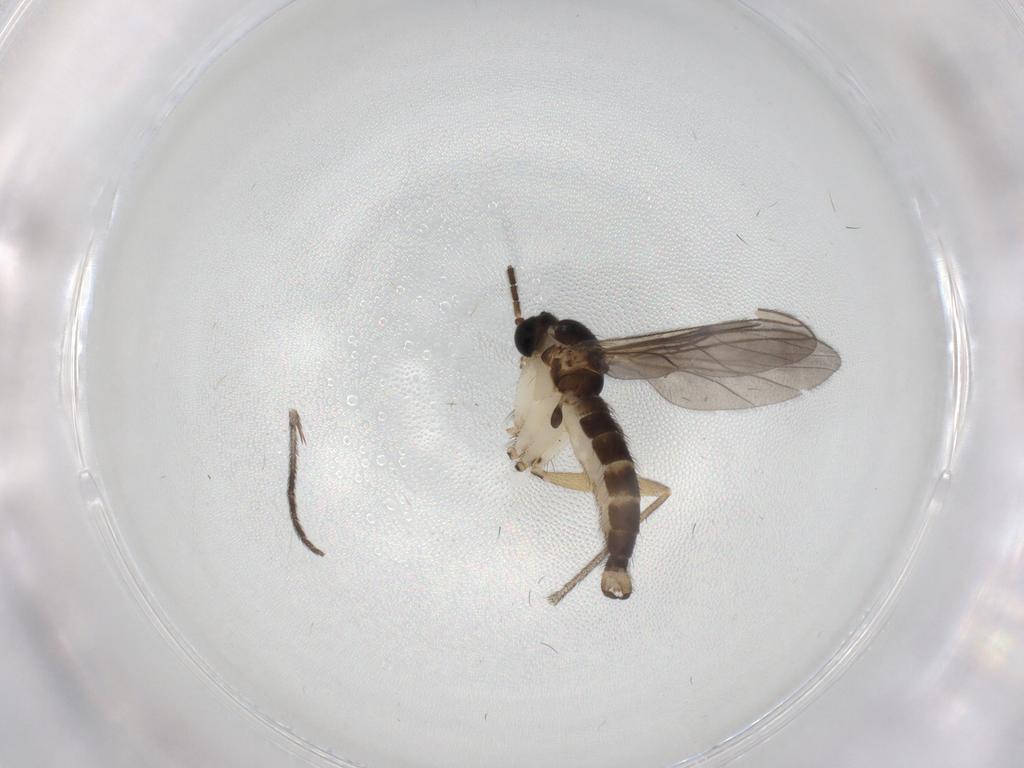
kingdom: Animalia
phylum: Arthropoda
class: Insecta
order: Diptera
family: Sciaridae
